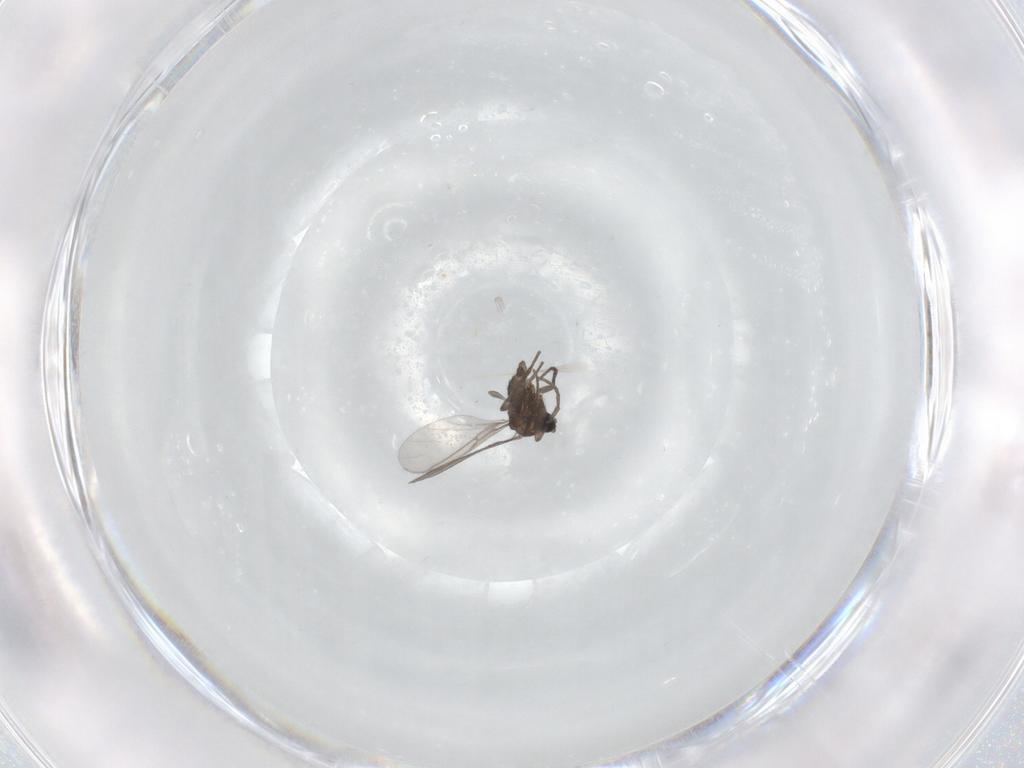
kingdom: Animalia
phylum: Arthropoda
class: Insecta
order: Diptera
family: Sciaridae
